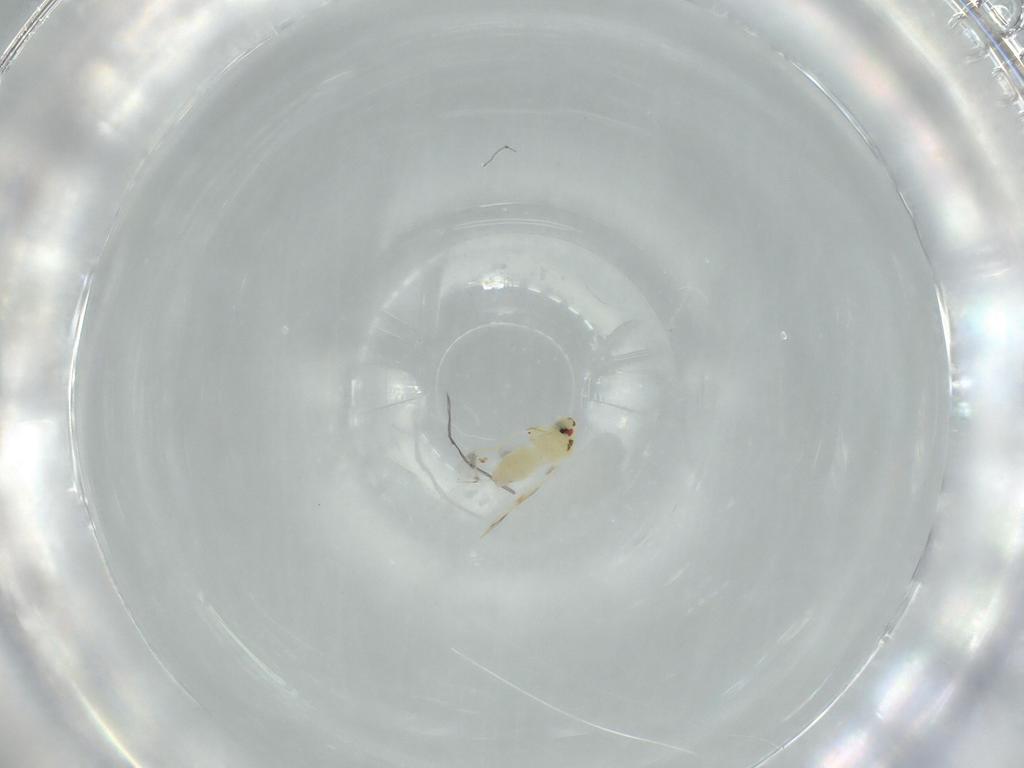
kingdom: Animalia
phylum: Arthropoda
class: Insecta
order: Hemiptera
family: Aleyrodidae
